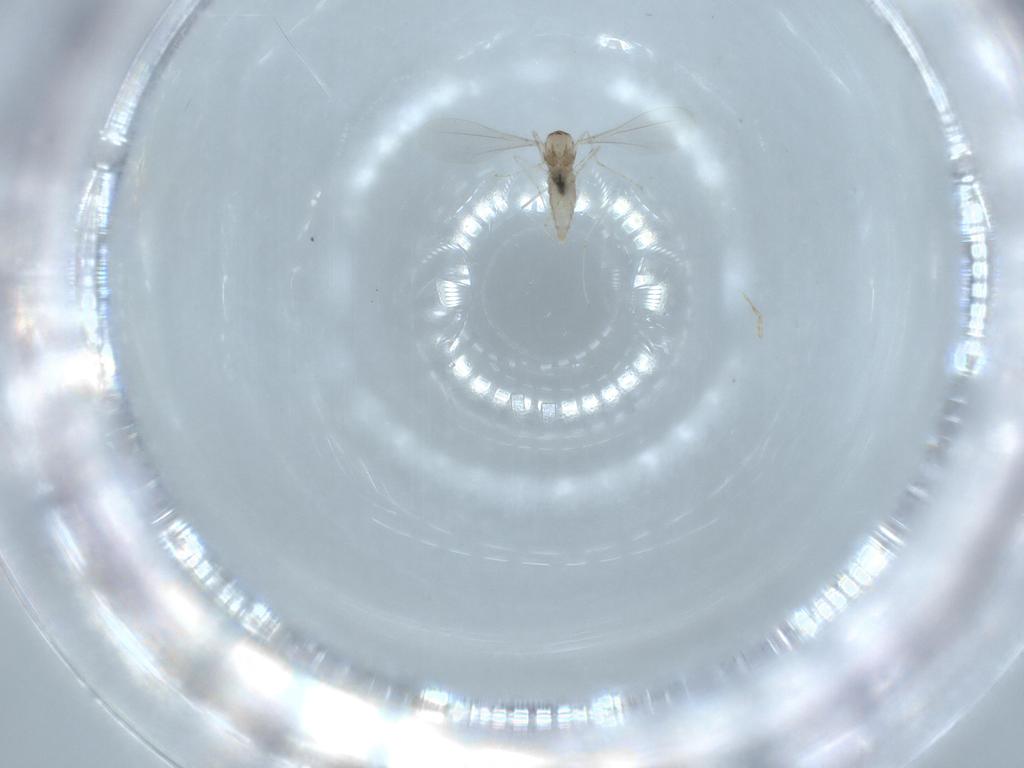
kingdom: Animalia
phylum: Arthropoda
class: Insecta
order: Diptera
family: Cecidomyiidae
